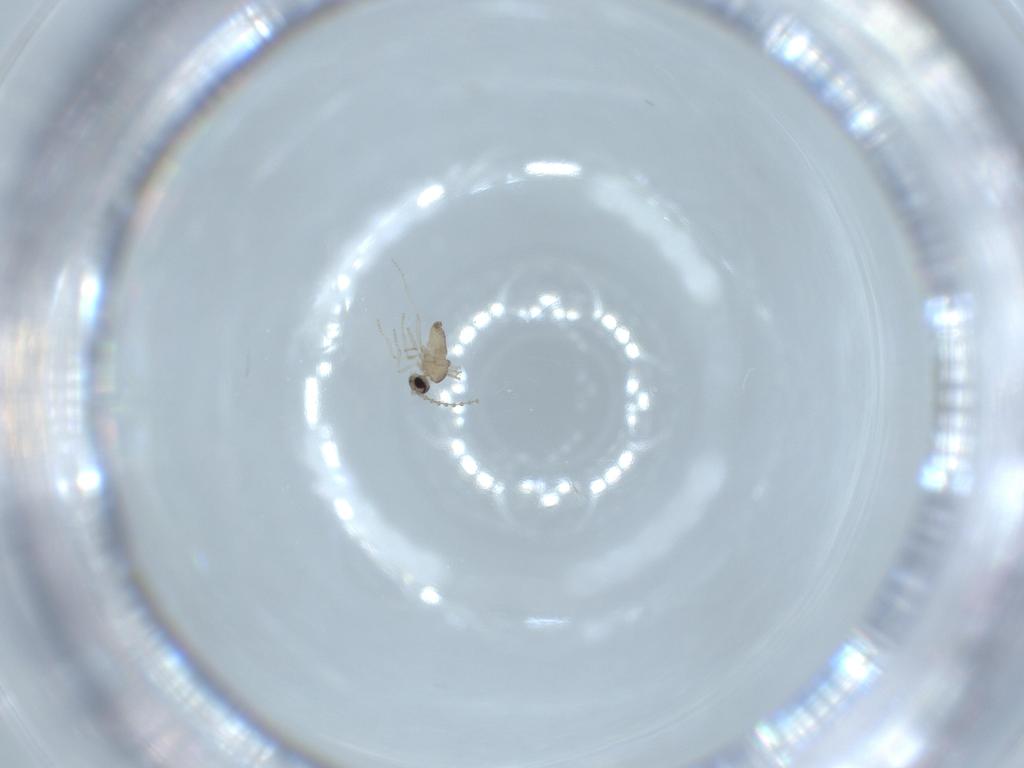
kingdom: Animalia
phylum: Arthropoda
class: Insecta
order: Diptera
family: Cecidomyiidae
